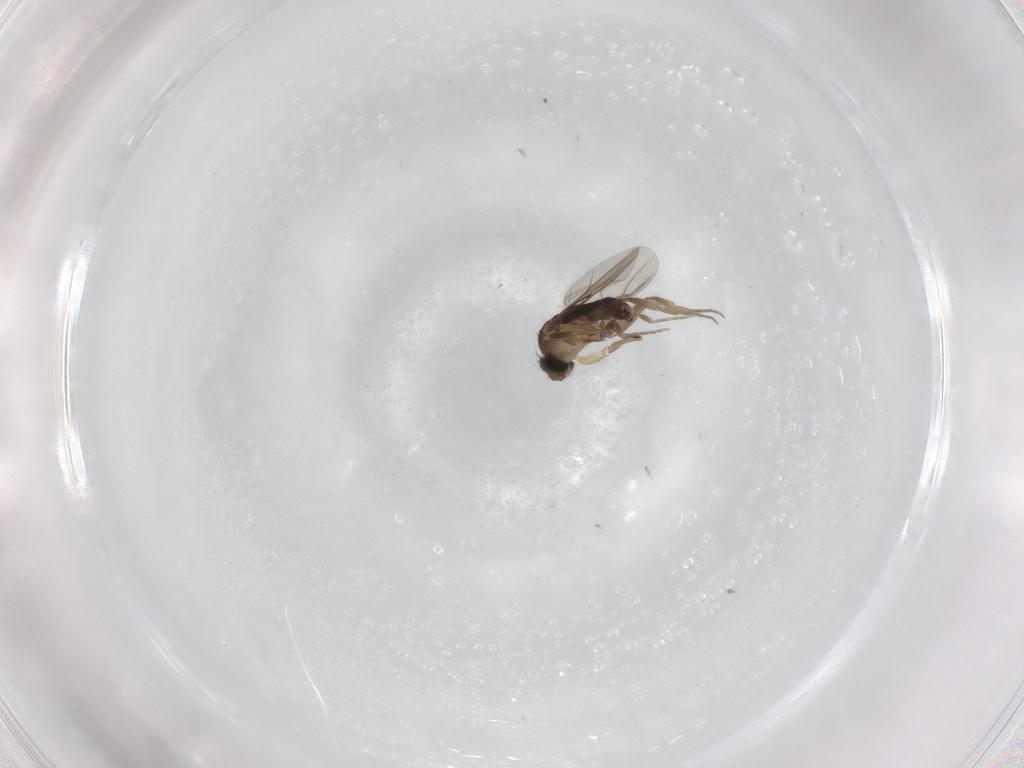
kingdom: Animalia
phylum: Arthropoda
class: Insecta
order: Diptera
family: Phoridae
